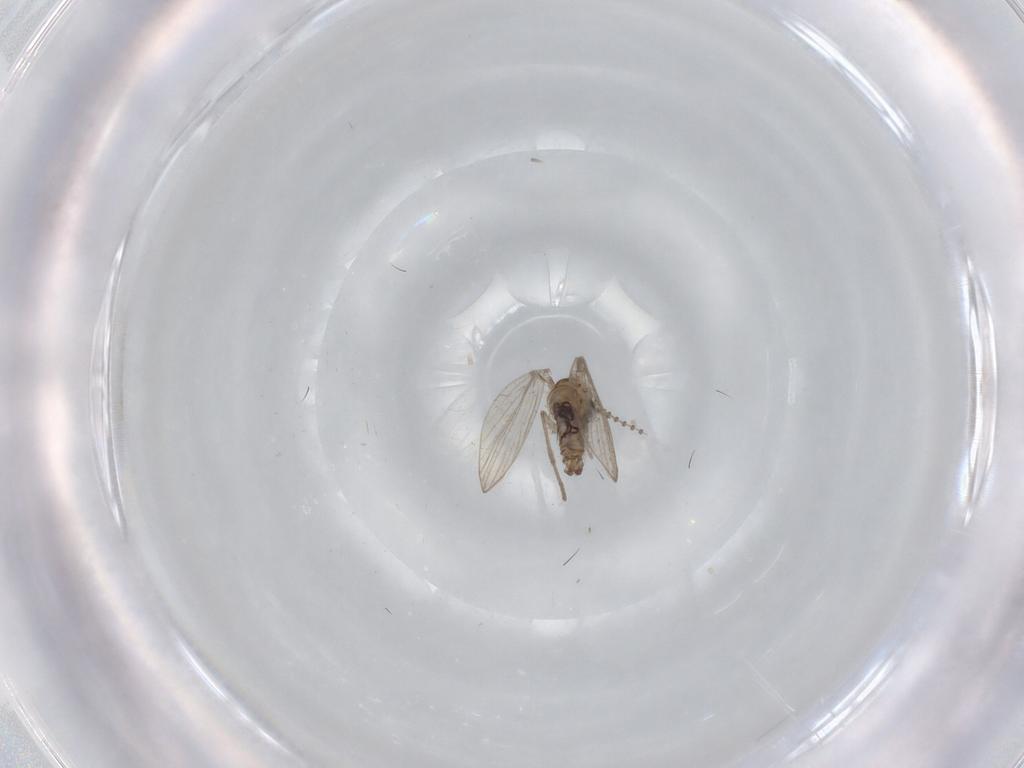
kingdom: Animalia
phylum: Arthropoda
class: Insecta
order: Diptera
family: Psychodidae
